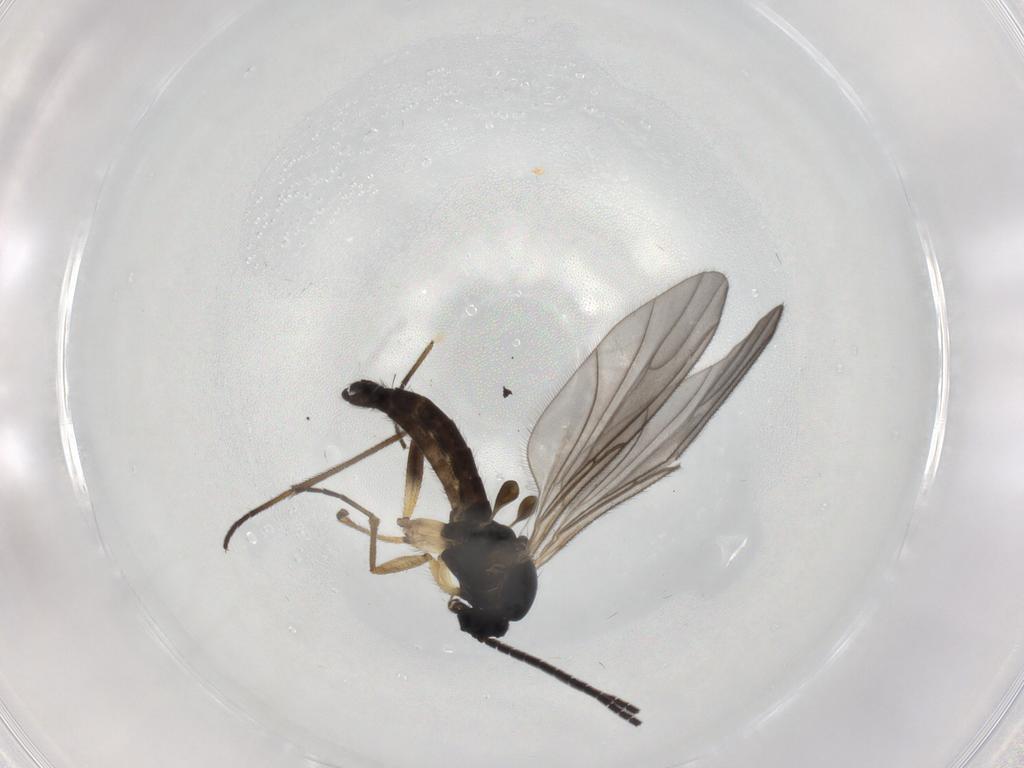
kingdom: Animalia
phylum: Arthropoda
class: Insecta
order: Diptera
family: Sciaridae
